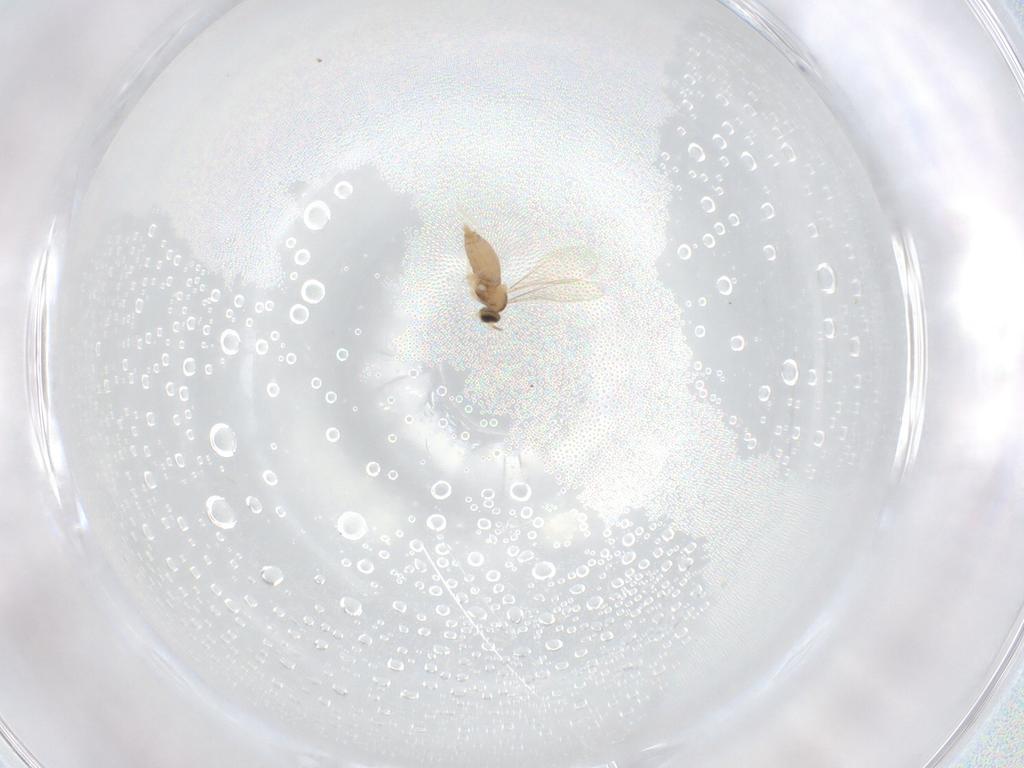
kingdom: Animalia
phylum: Arthropoda
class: Insecta
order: Diptera
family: Cecidomyiidae
